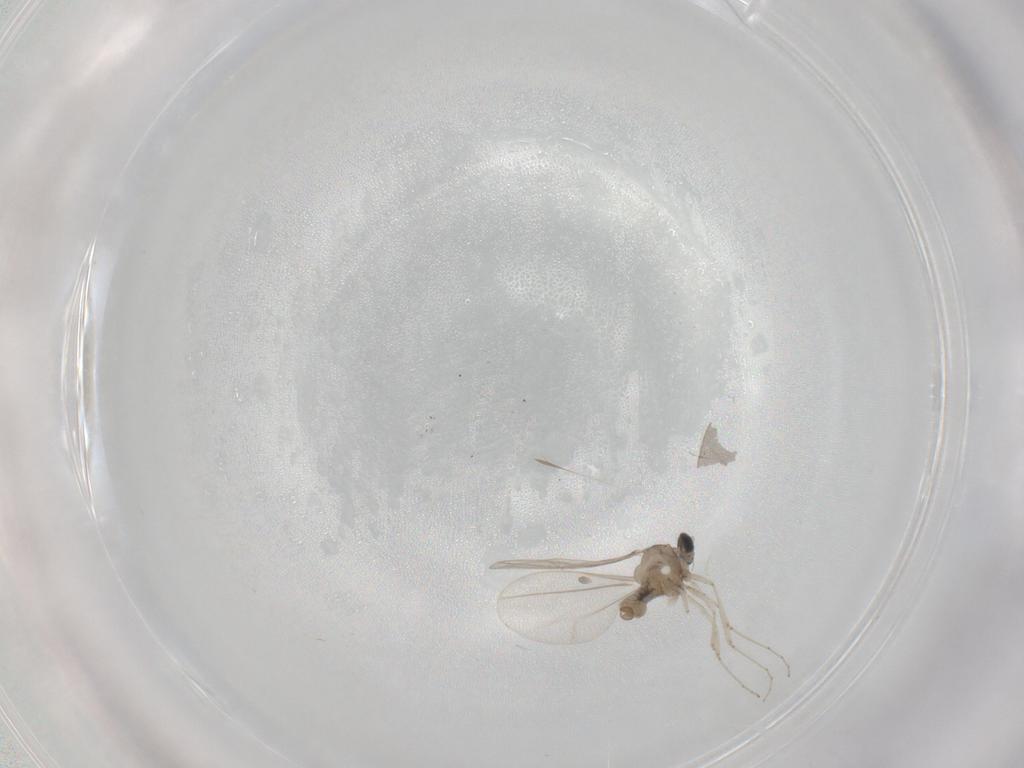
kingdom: Animalia
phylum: Arthropoda
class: Insecta
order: Diptera
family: Cecidomyiidae
